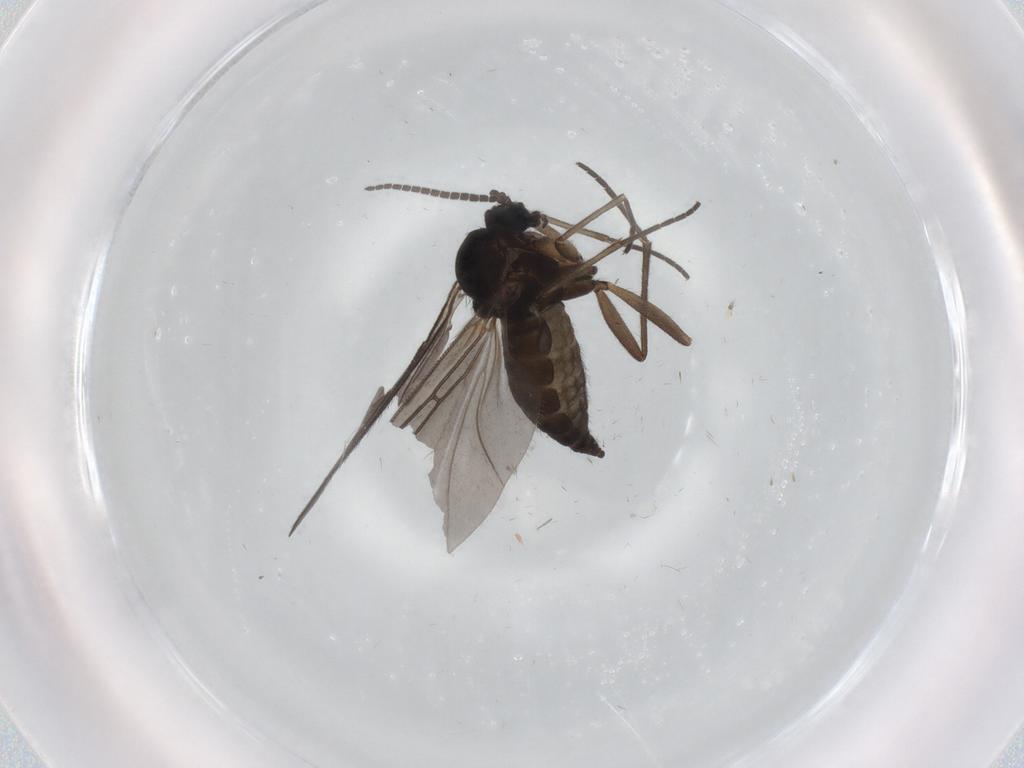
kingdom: Animalia
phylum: Arthropoda
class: Insecta
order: Diptera
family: Sciaridae
